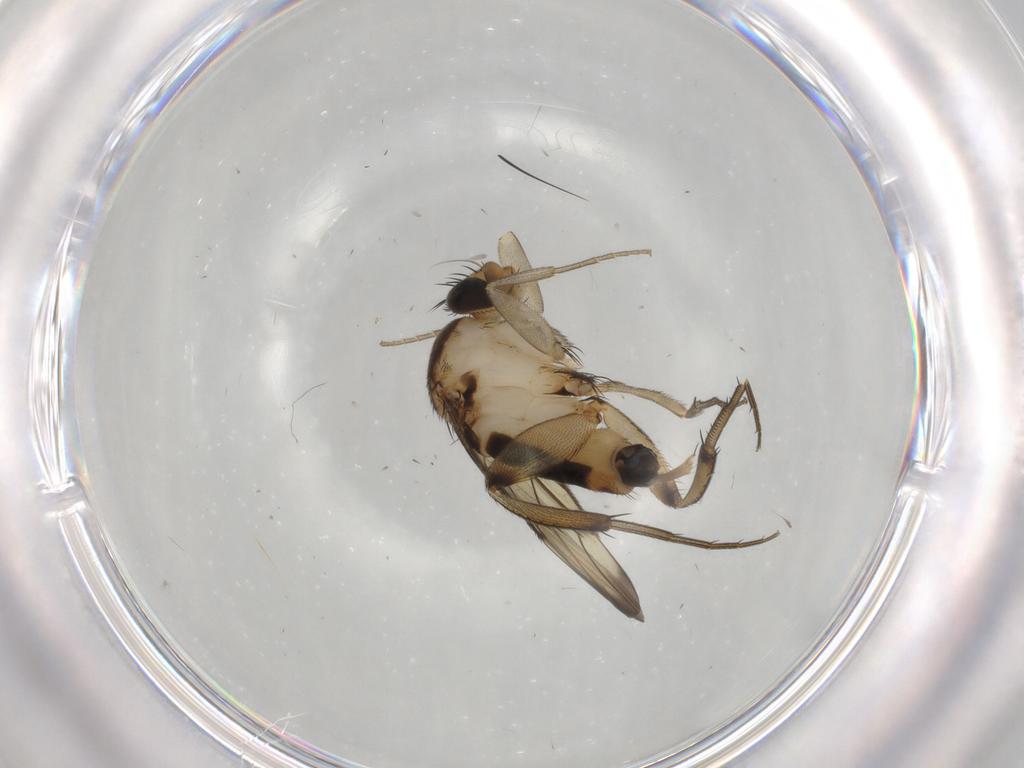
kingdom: Animalia
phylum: Arthropoda
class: Insecta
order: Diptera
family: Phoridae
